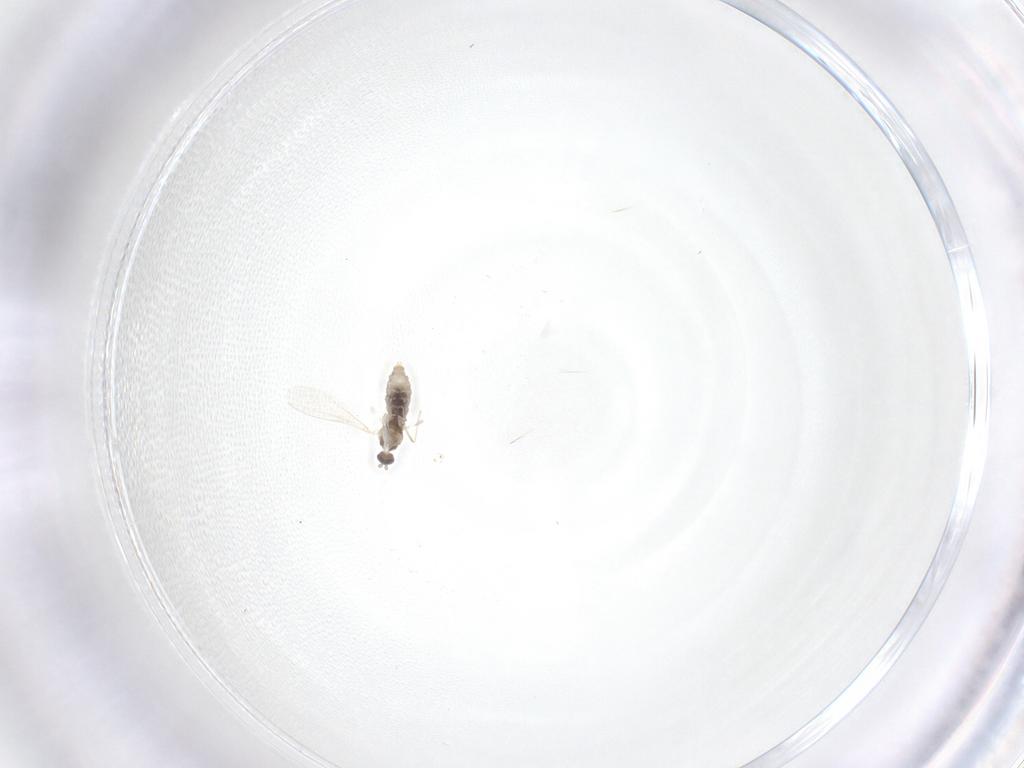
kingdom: Animalia
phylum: Arthropoda
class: Insecta
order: Diptera
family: Cecidomyiidae
